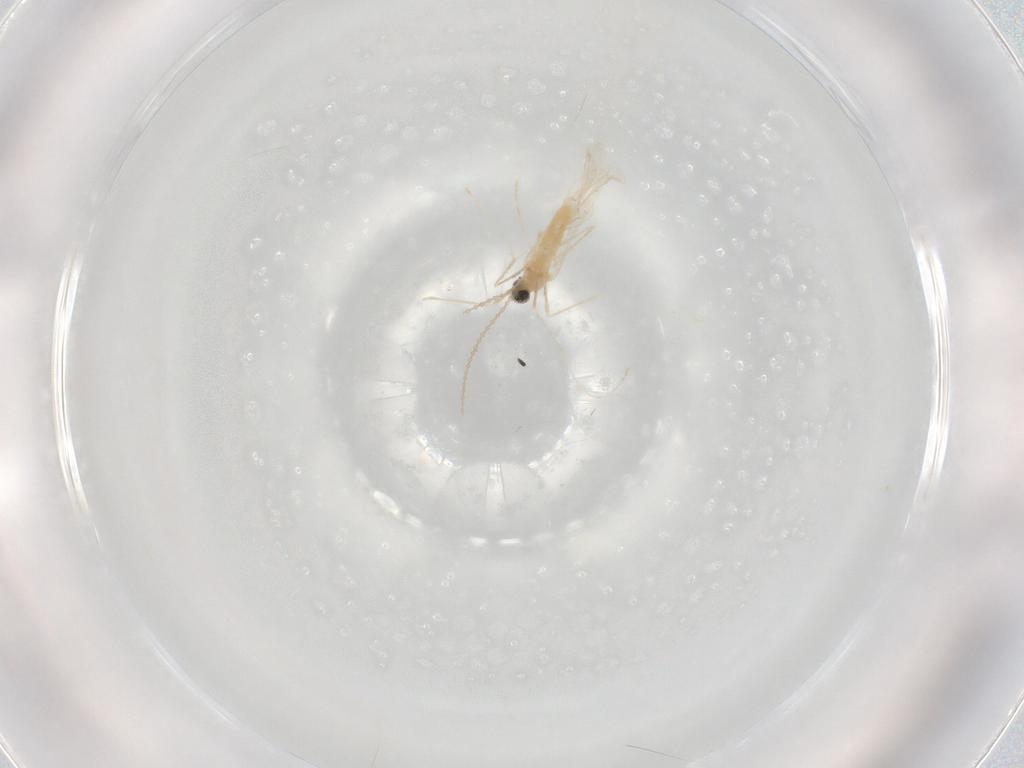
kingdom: Animalia
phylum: Arthropoda
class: Insecta
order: Diptera
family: Cecidomyiidae
